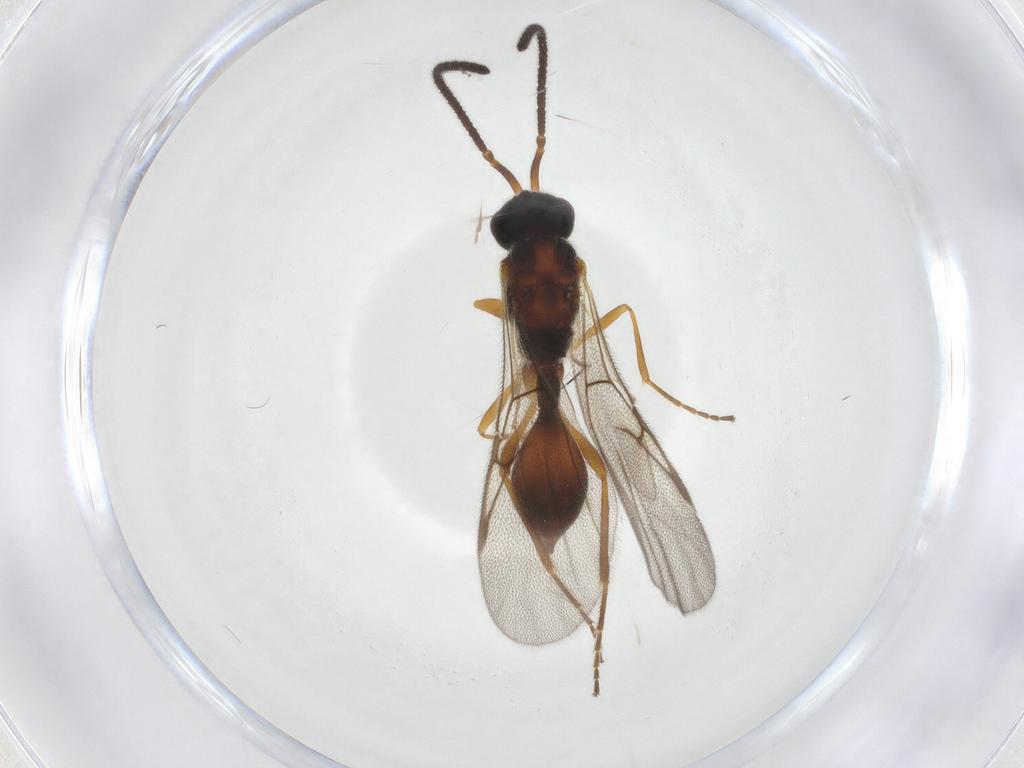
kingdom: Animalia
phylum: Arthropoda
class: Insecta
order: Hymenoptera
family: Diapriidae
